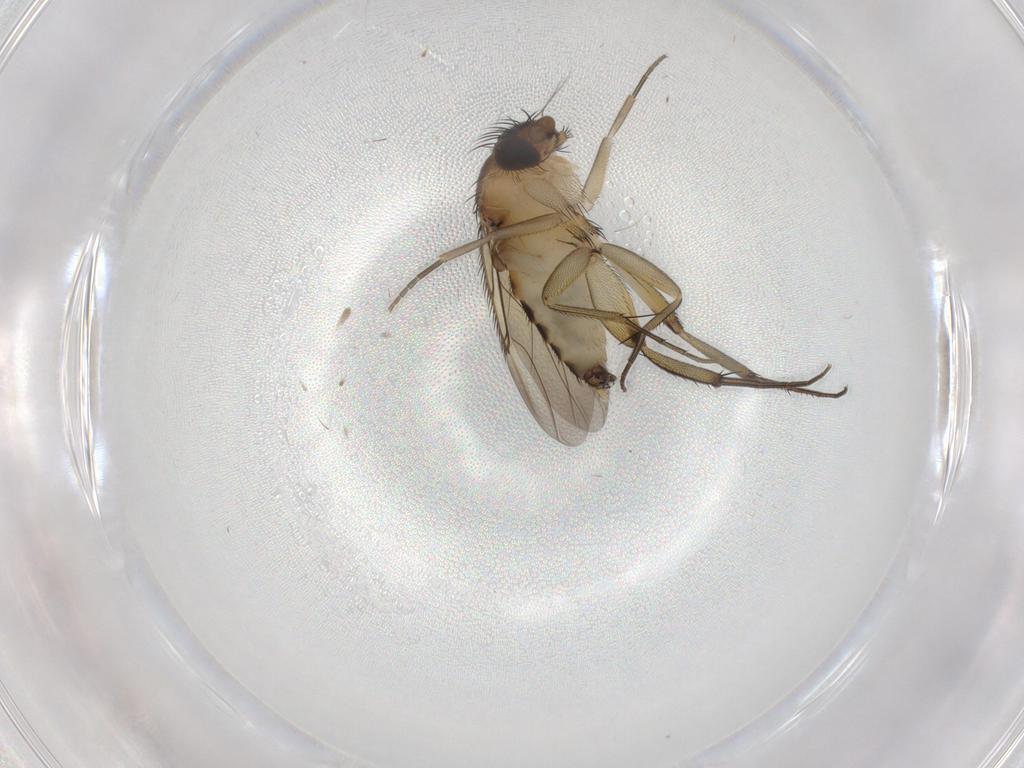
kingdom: Animalia
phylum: Arthropoda
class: Insecta
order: Diptera
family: Phoridae
